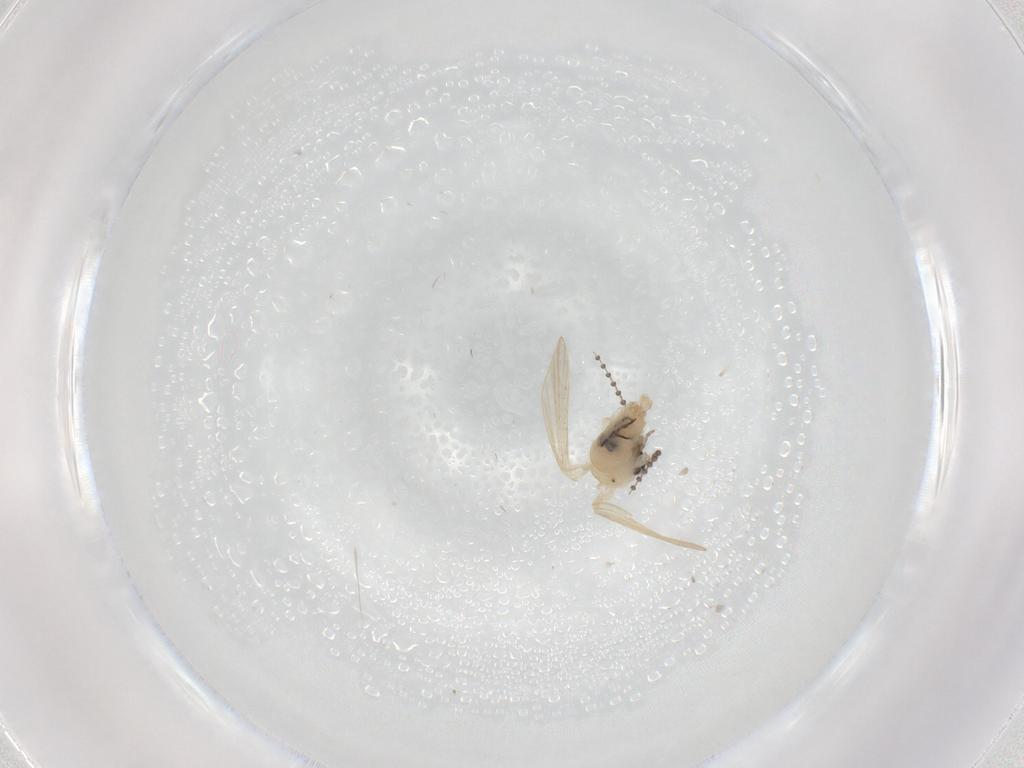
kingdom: Animalia
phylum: Arthropoda
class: Insecta
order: Diptera
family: Psychodidae
